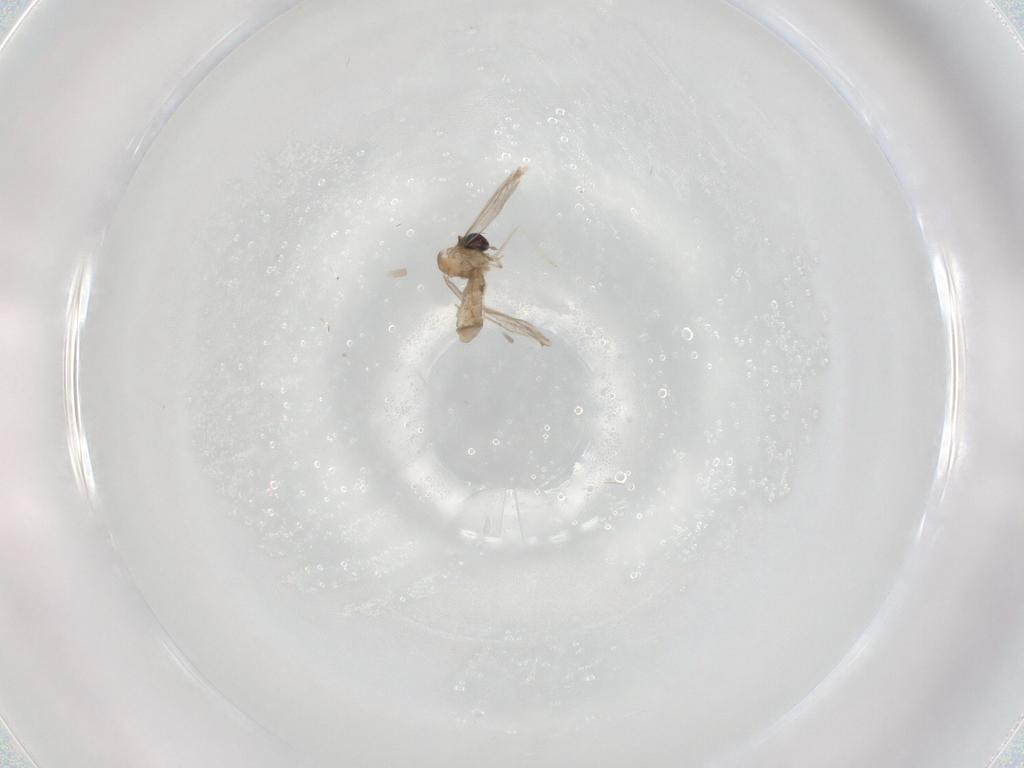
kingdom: Animalia
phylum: Arthropoda
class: Insecta
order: Diptera
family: Cecidomyiidae
